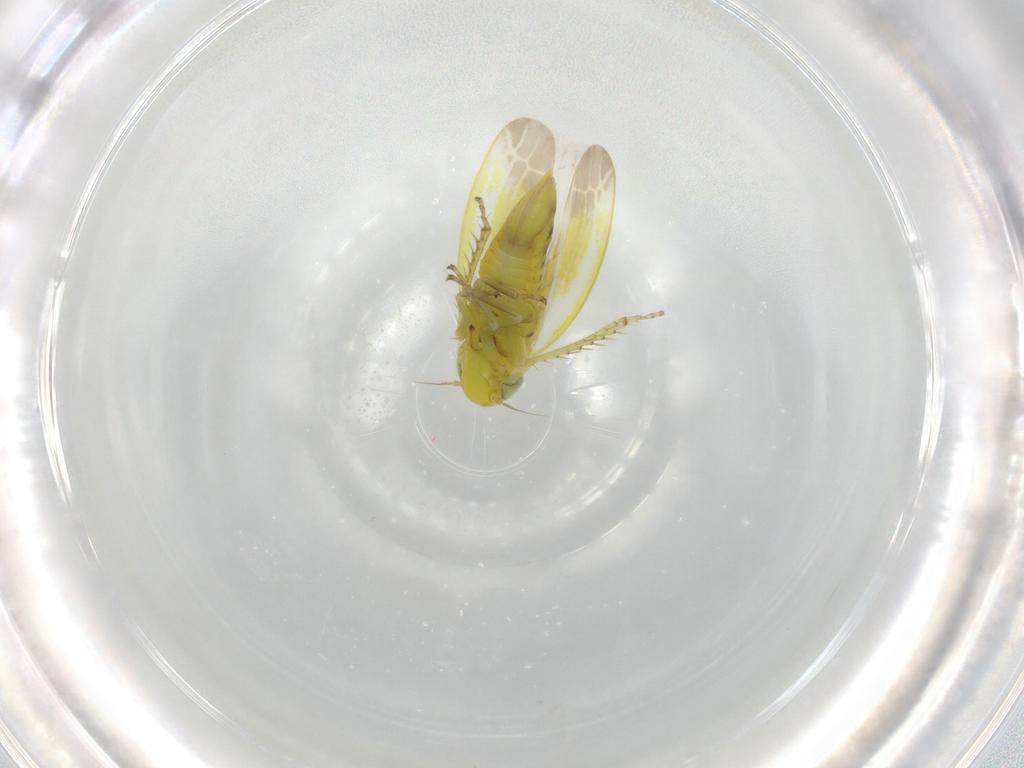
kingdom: Animalia
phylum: Arthropoda
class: Insecta
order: Hemiptera
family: Cicadellidae
